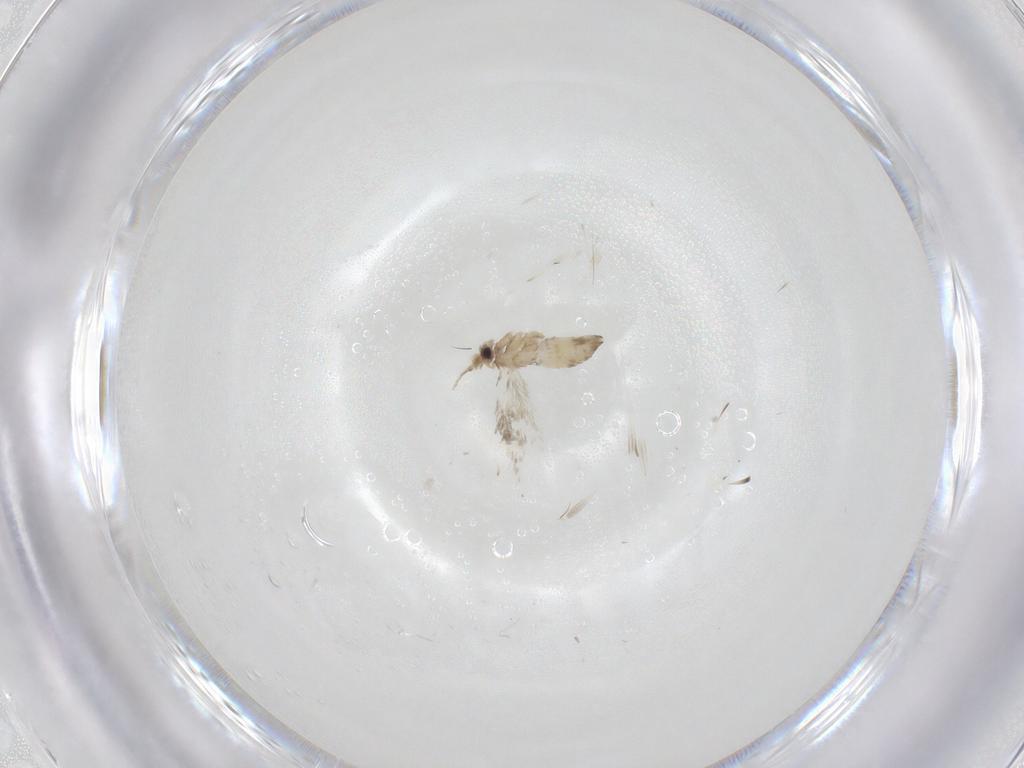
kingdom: Animalia
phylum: Arthropoda
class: Insecta
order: Lepidoptera
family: Nepticulidae
